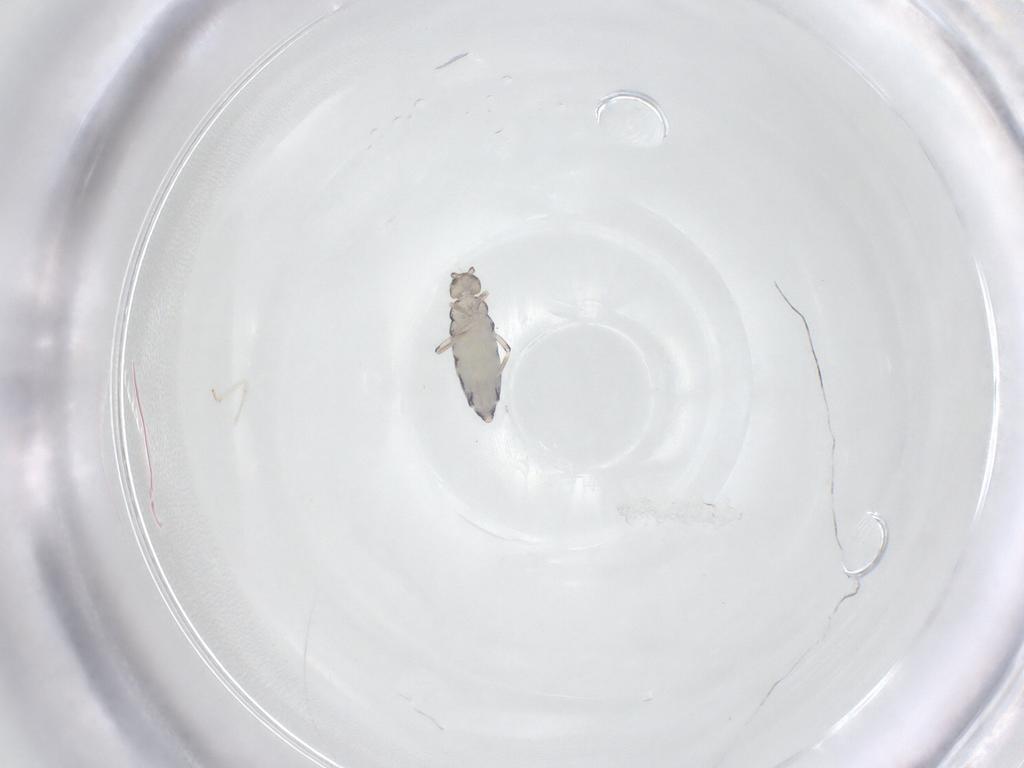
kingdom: Animalia
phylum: Arthropoda
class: Collembola
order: Entomobryomorpha
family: Entomobryidae
